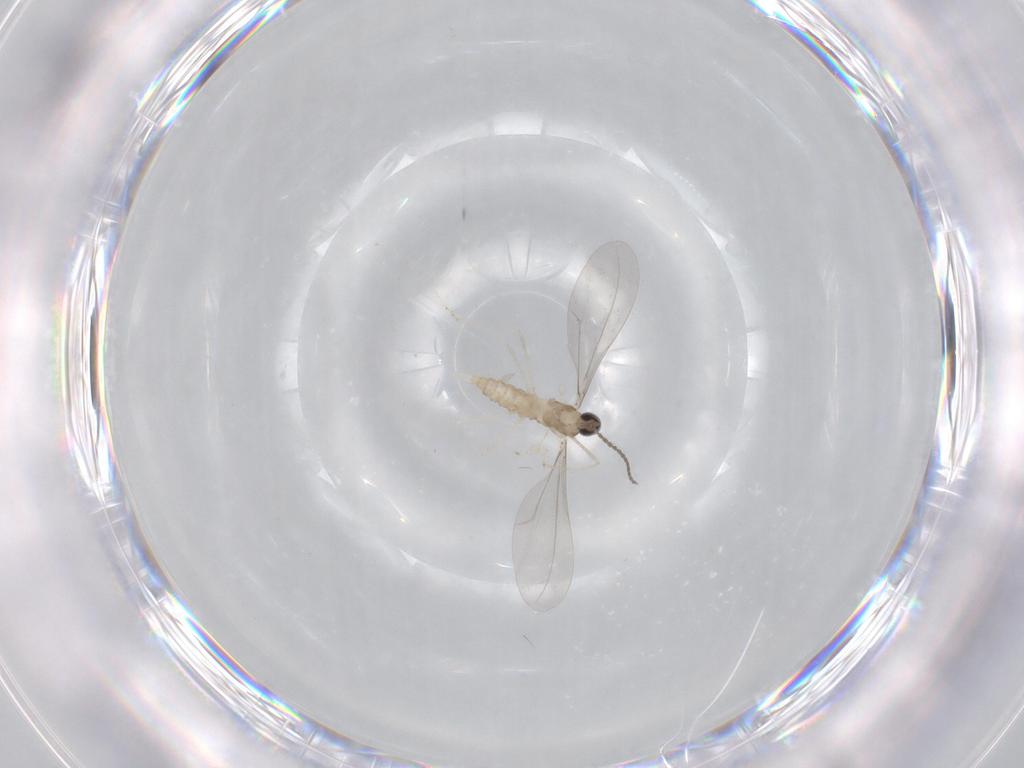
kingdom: Animalia
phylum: Arthropoda
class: Insecta
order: Diptera
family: Cecidomyiidae
